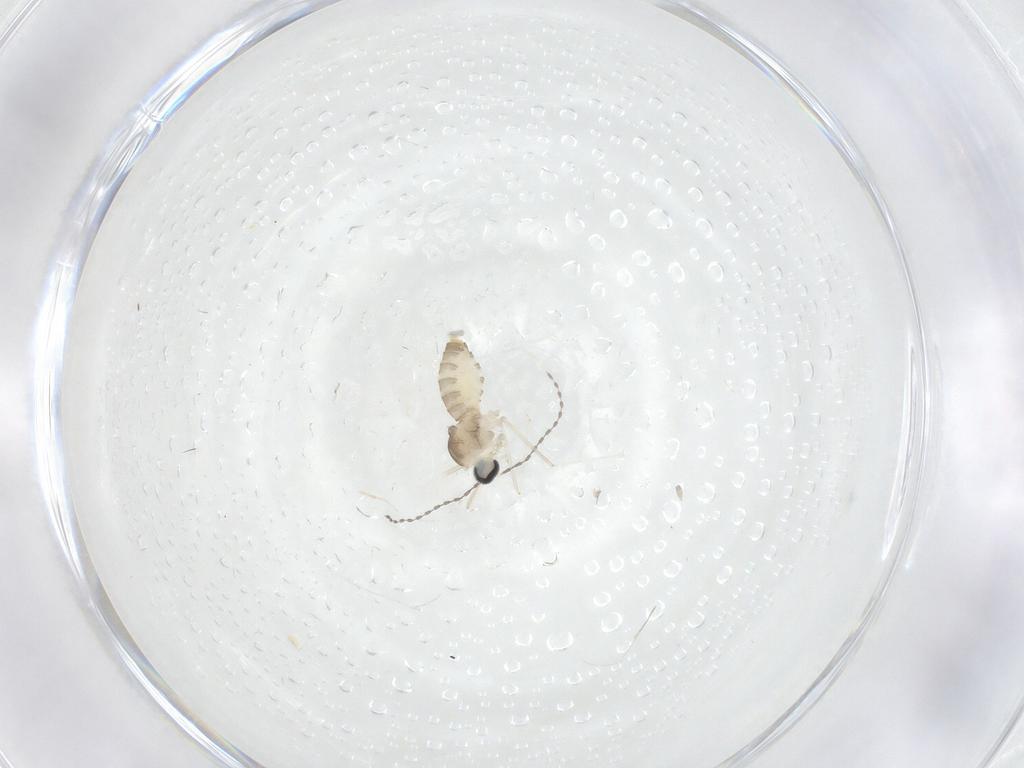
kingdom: Animalia
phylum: Arthropoda
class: Insecta
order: Diptera
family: Cecidomyiidae
